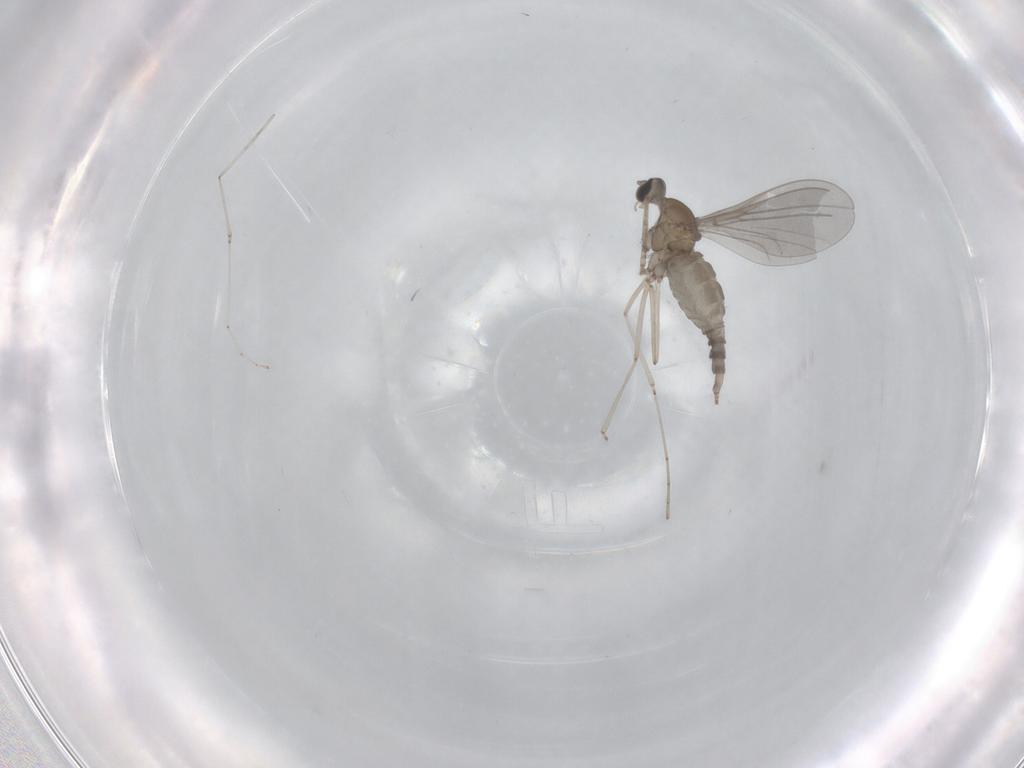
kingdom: Animalia
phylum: Arthropoda
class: Insecta
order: Diptera
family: Cecidomyiidae
